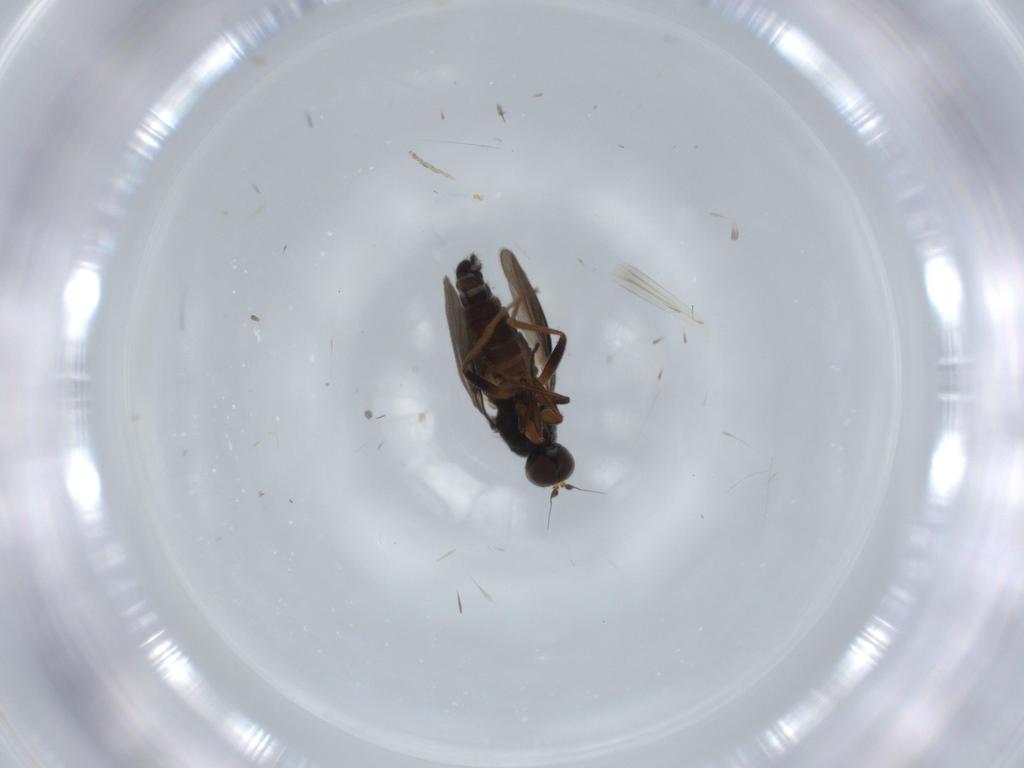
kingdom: Animalia
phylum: Arthropoda
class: Insecta
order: Diptera
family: Hybotidae
